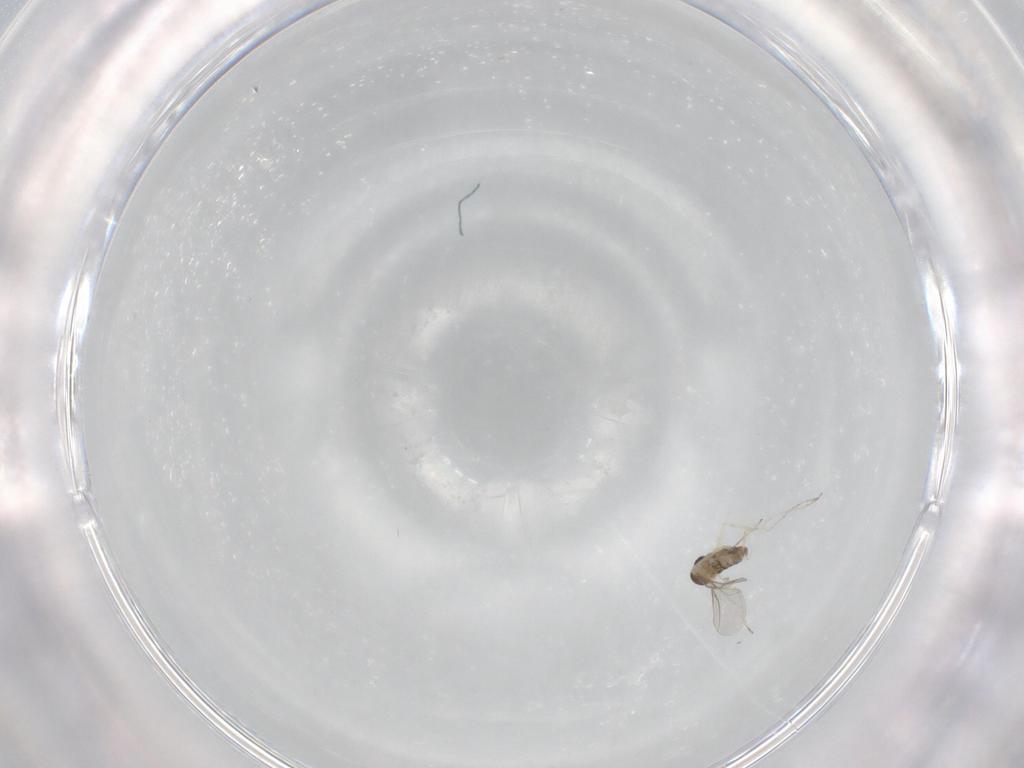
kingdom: Animalia
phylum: Arthropoda
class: Insecta
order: Diptera
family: Cecidomyiidae
